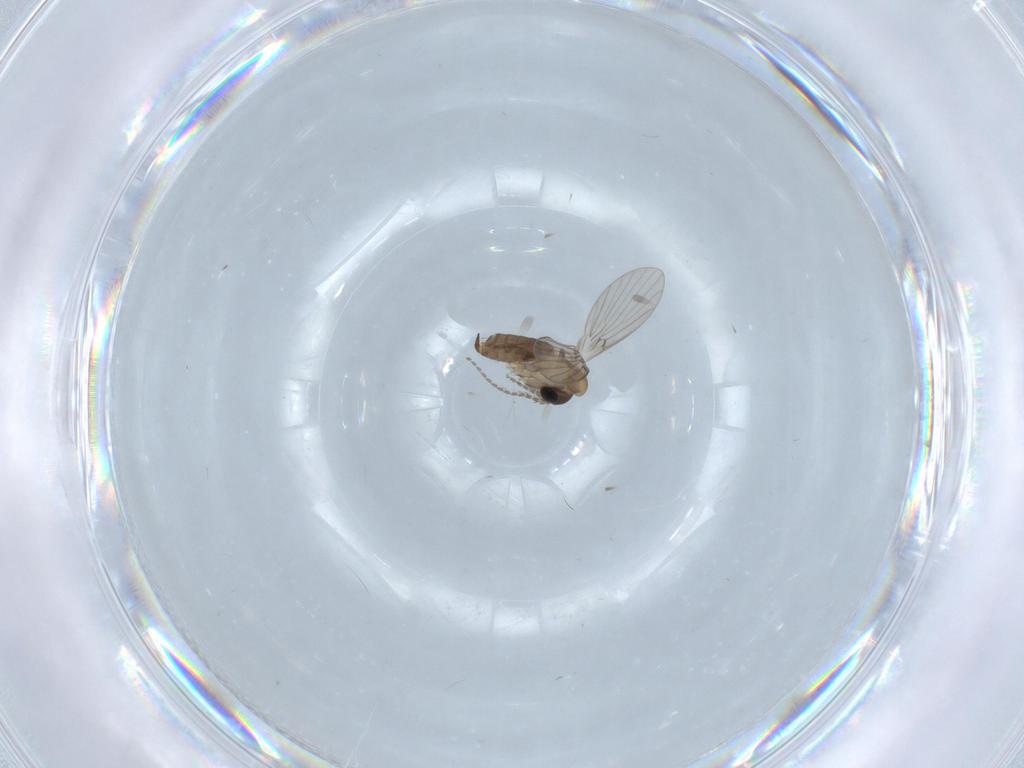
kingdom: Animalia
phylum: Arthropoda
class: Insecta
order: Diptera
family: Psychodidae
